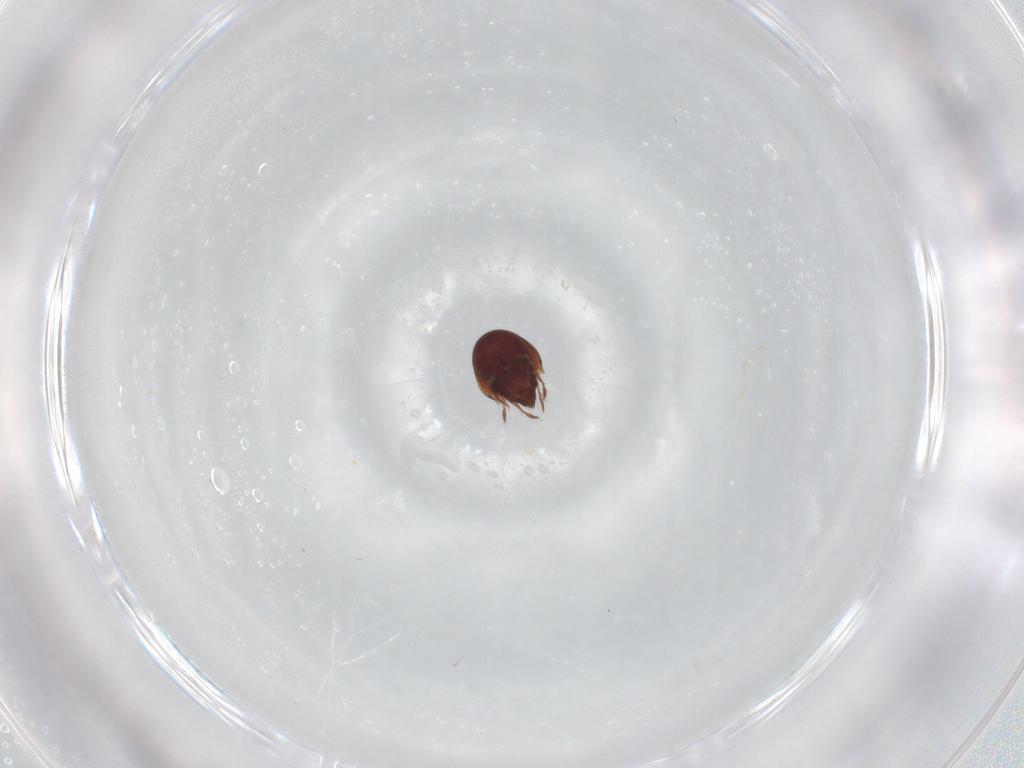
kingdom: Animalia
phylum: Arthropoda
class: Arachnida
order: Sarcoptiformes
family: Ceratozetidae
